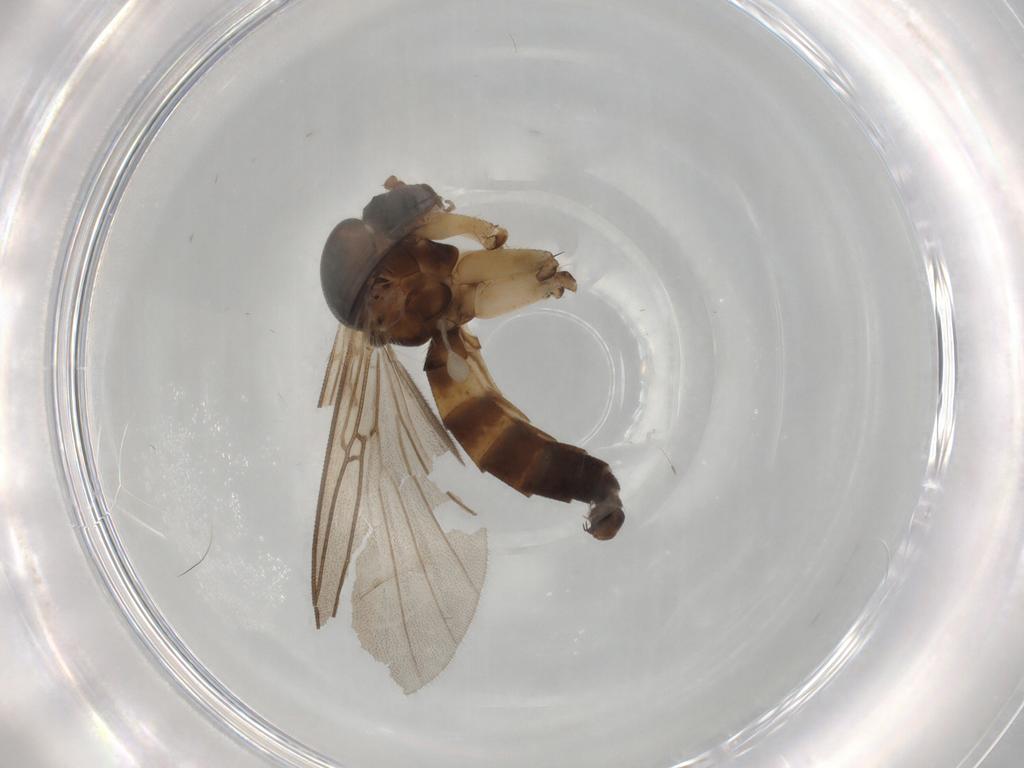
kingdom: Animalia
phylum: Arthropoda
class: Insecta
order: Diptera
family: Mycetophilidae
